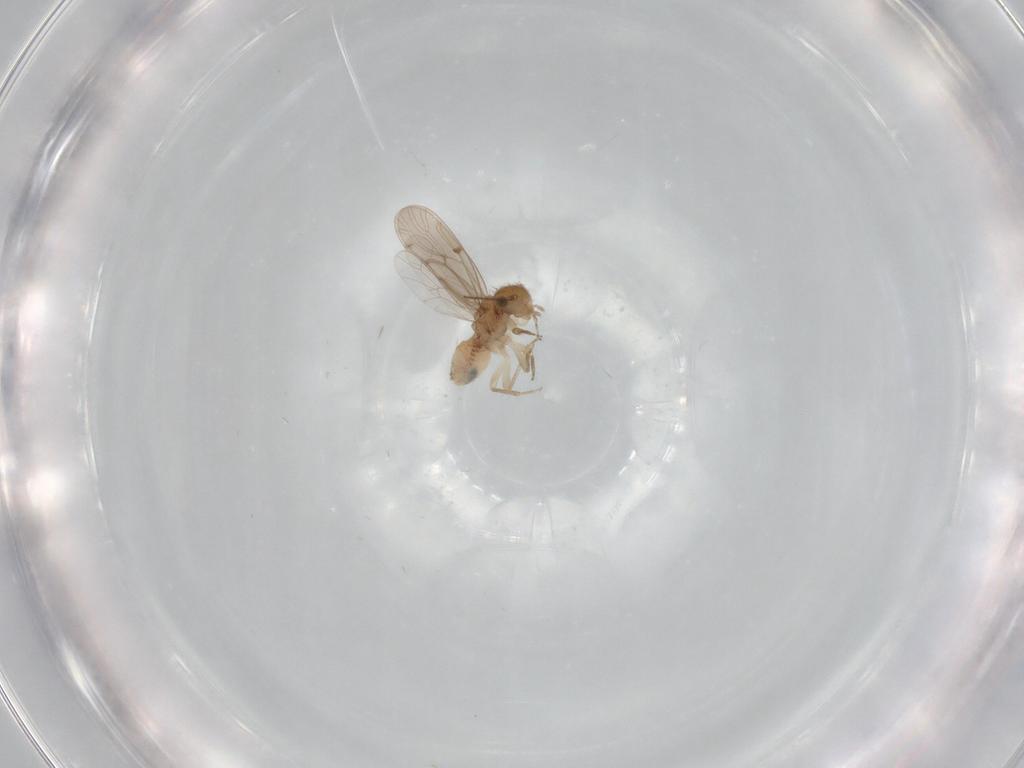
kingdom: Animalia
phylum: Arthropoda
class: Insecta
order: Psocodea
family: Ectopsocidae
